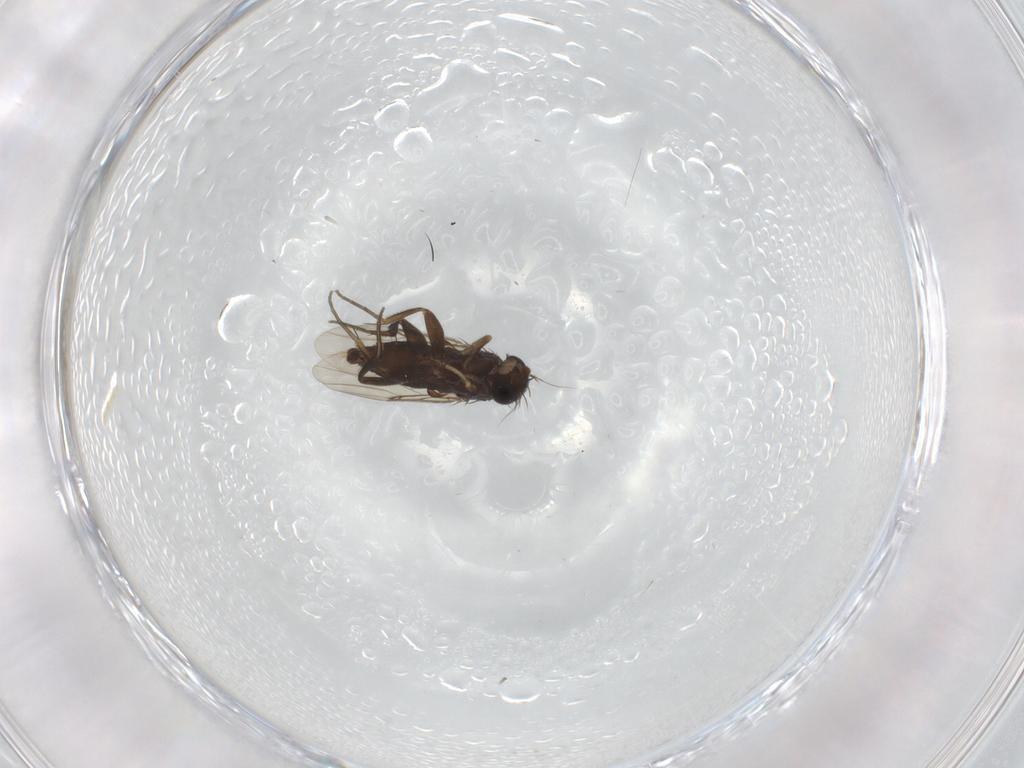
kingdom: Animalia
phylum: Arthropoda
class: Insecta
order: Diptera
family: Phoridae
